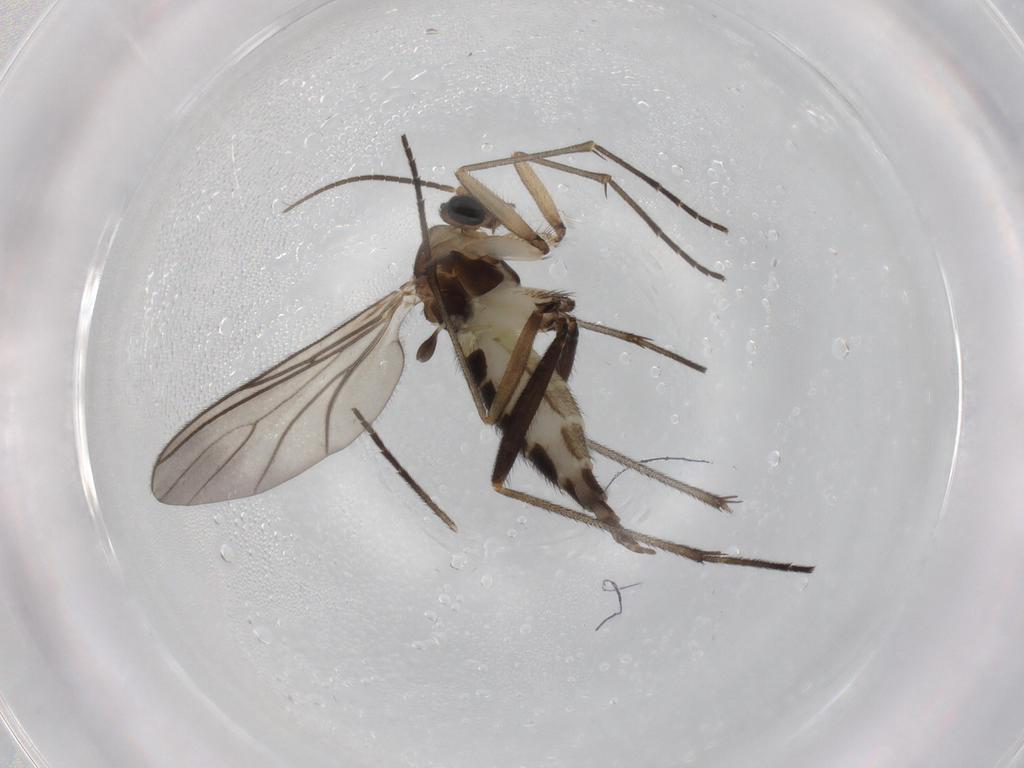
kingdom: Animalia
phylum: Arthropoda
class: Insecta
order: Diptera
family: Sciaridae
